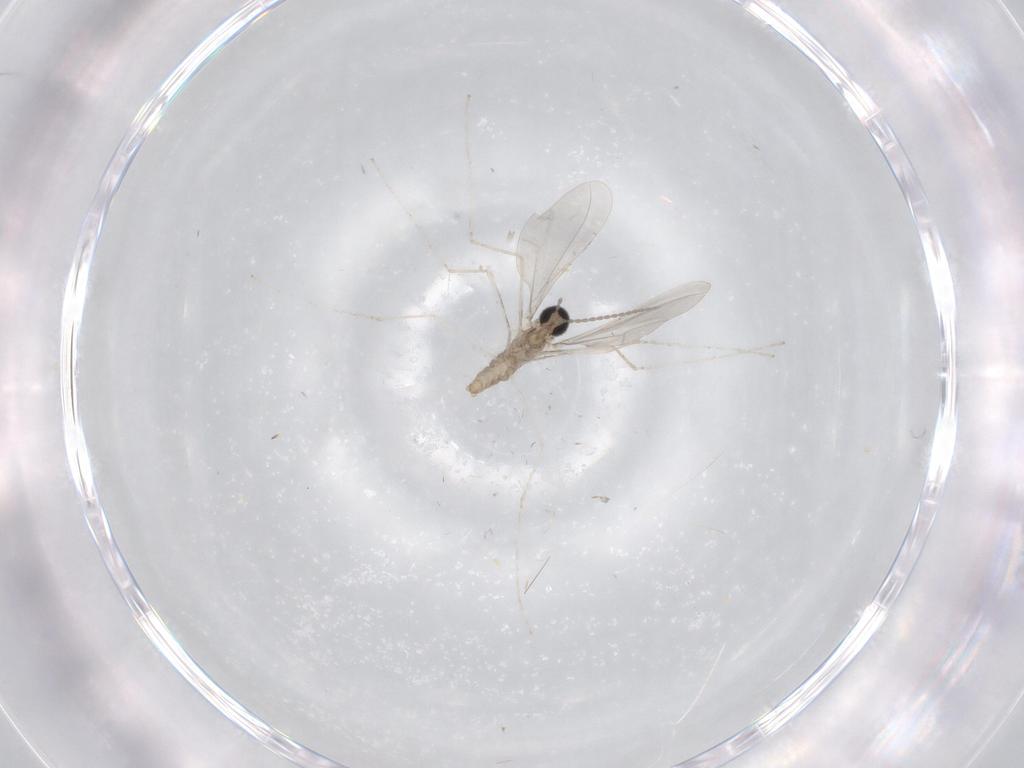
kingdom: Animalia
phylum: Arthropoda
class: Insecta
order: Diptera
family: Cecidomyiidae
